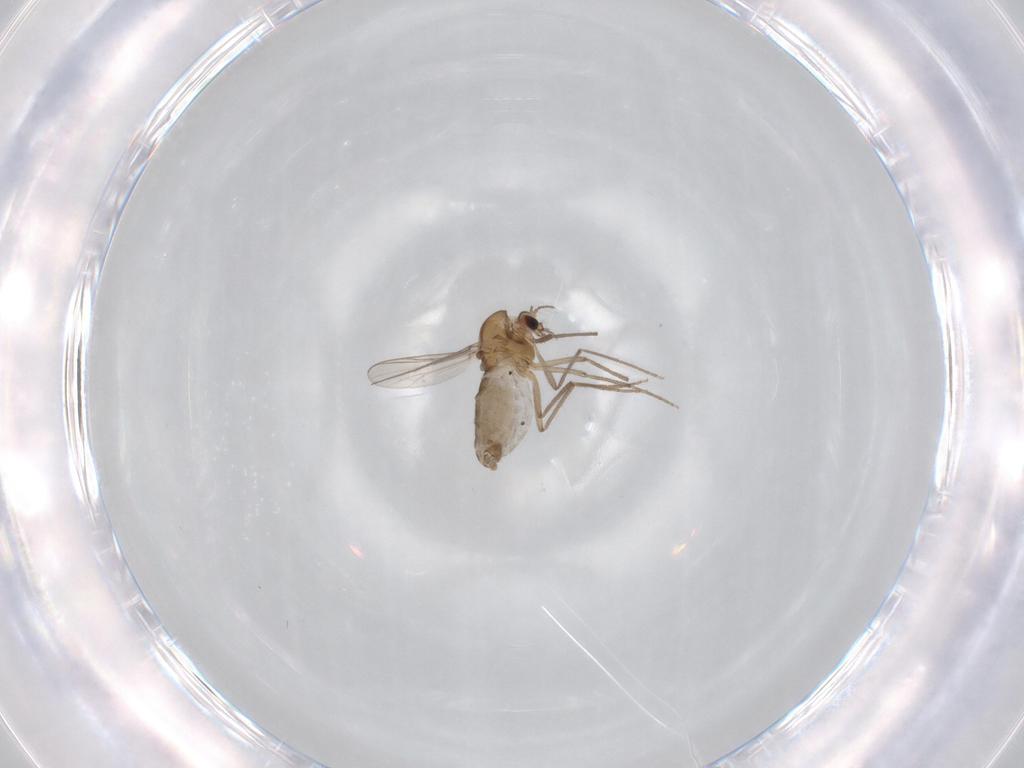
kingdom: Animalia
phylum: Arthropoda
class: Insecta
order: Diptera
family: Chironomidae
